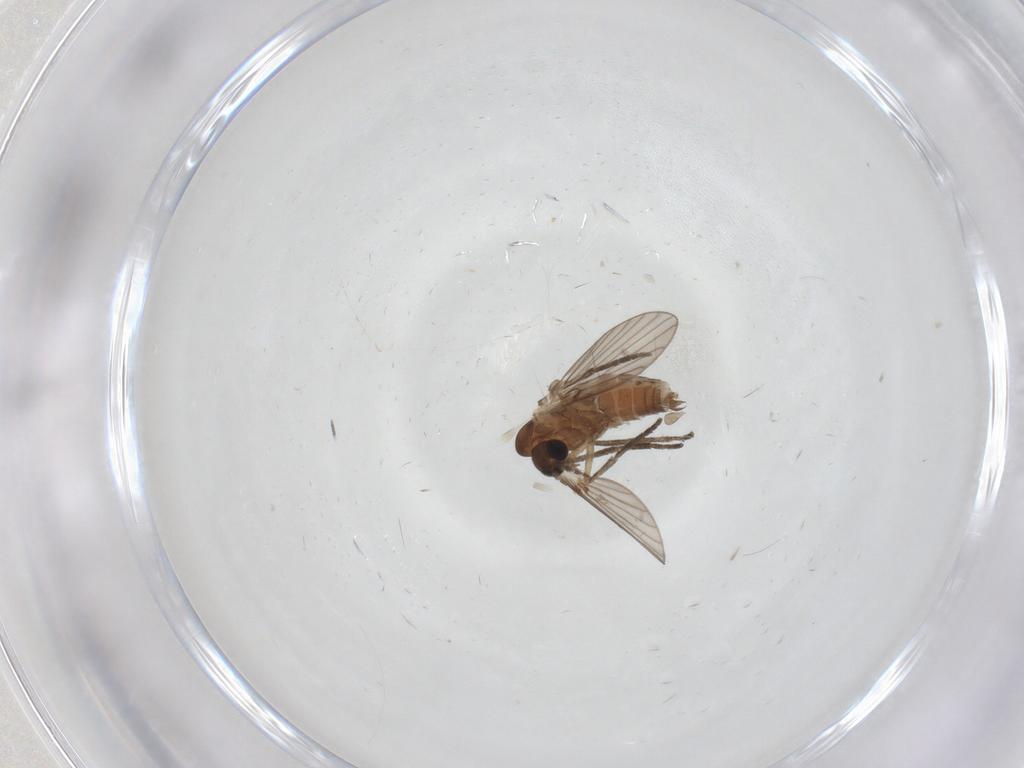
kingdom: Animalia
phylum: Arthropoda
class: Insecta
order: Diptera
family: Psychodidae
